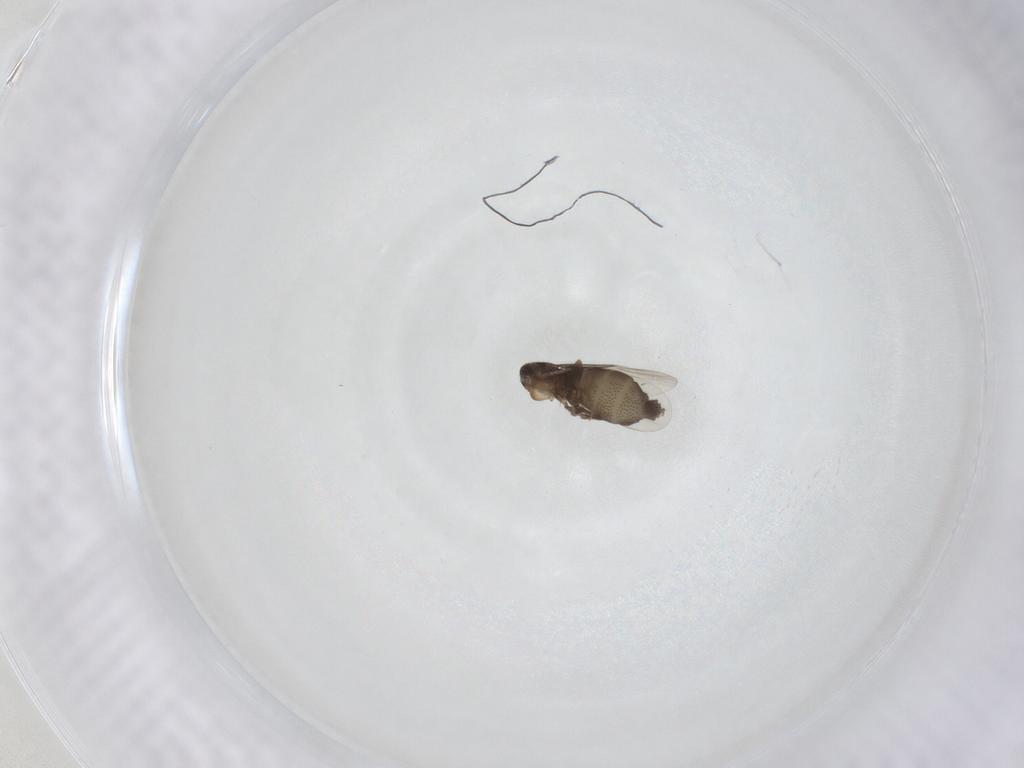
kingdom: Animalia
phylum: Arthropoda
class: Insecta
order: Diptera
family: Phoridae
